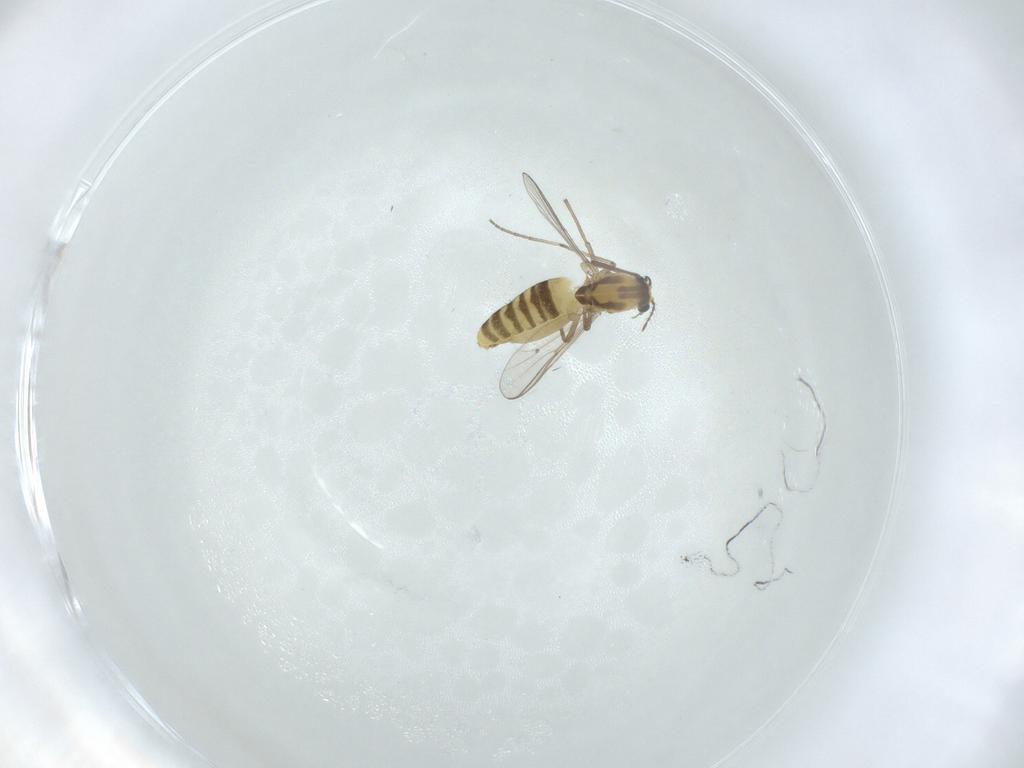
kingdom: Animalia
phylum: Arthropoda
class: Insecta
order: Diptera
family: Chironomidae
